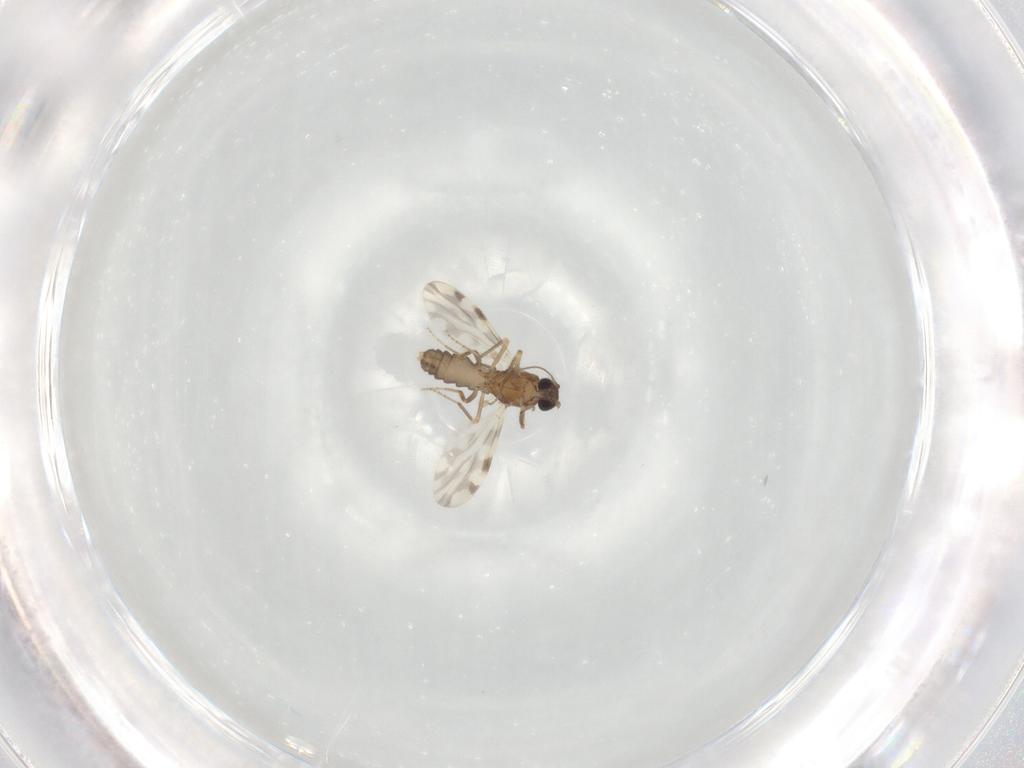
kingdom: Animalia
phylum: Arthropoda
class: Insecta
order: Diptera
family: Ceratopogonidae
